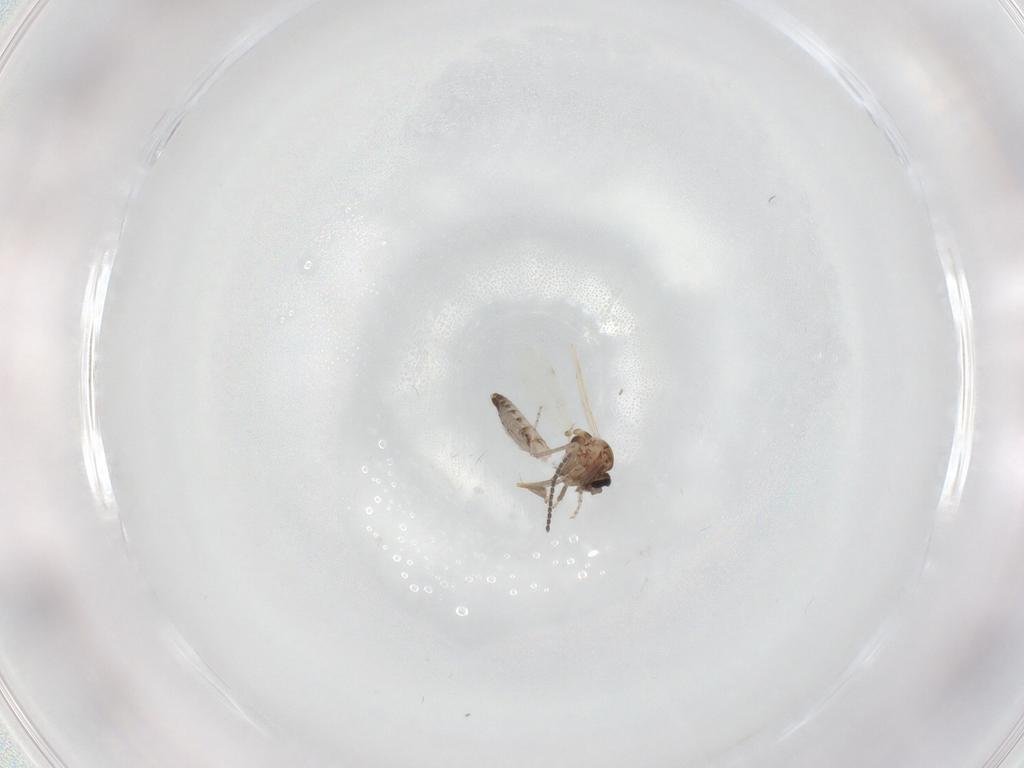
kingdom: Animalia
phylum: Arthropoda
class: Insecta
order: Diptera
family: Ceratopogonidae
